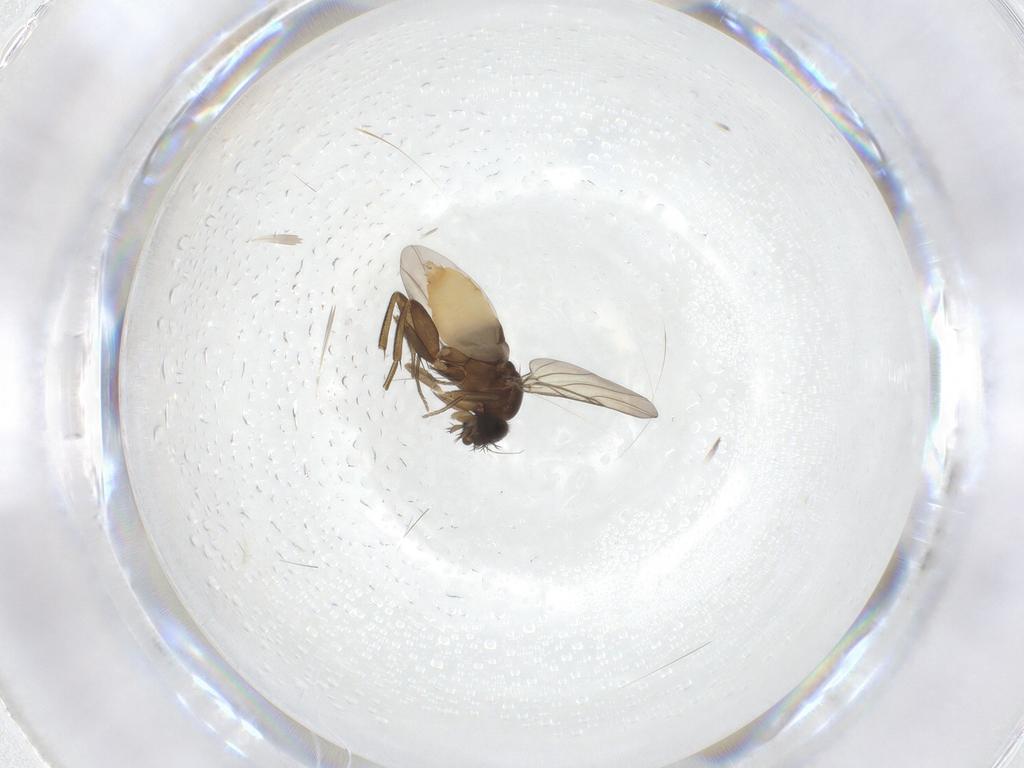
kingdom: Animalia
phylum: Arthropoda
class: Insecta
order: Diptera
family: Phoridae
